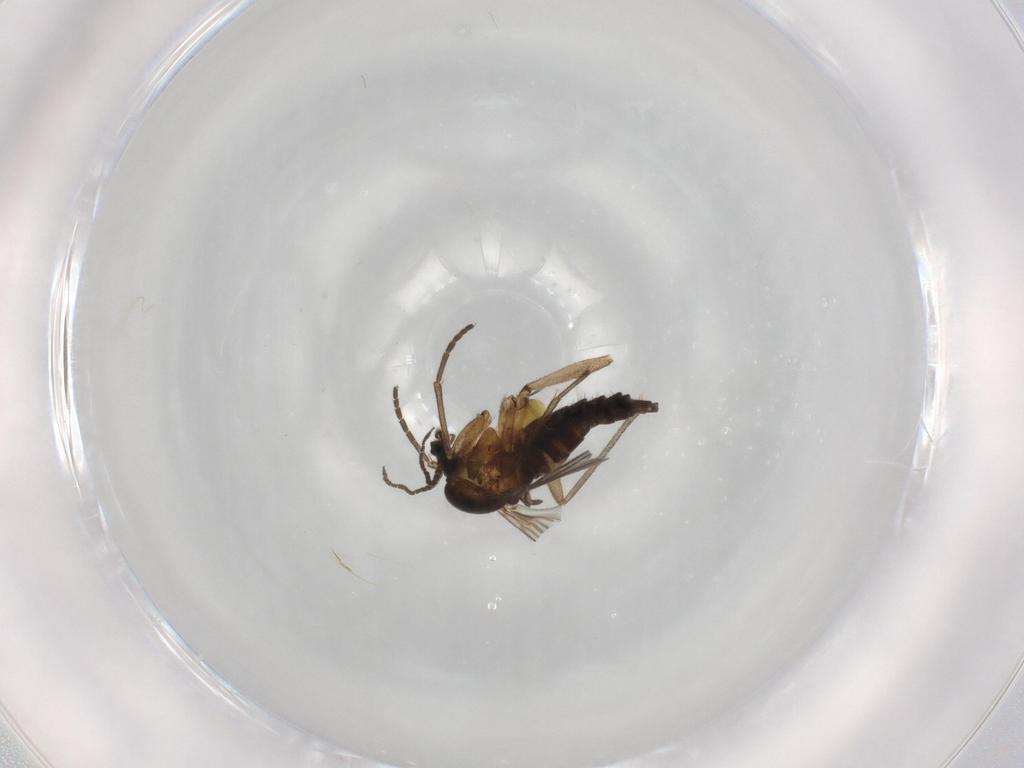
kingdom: Animalia
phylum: Arthropoda
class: Insecta
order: Diptera
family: Sciaridae
